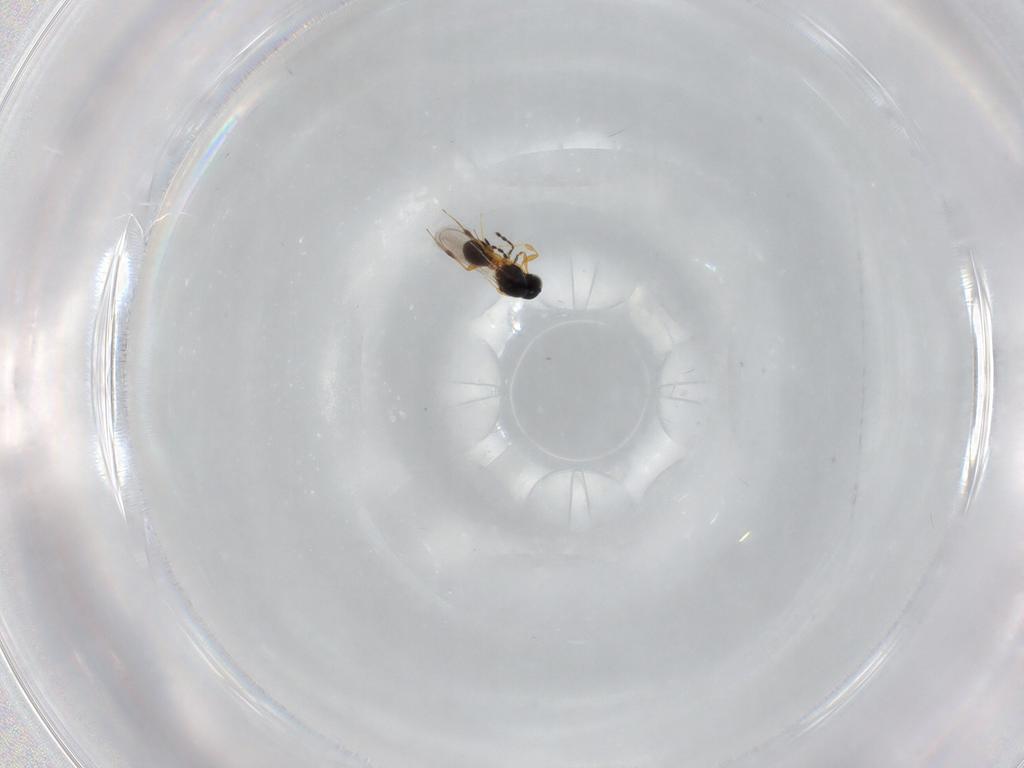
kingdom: Animalia
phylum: Arthropoda
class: Insecta
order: Hymenoptera
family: Platygastridae
